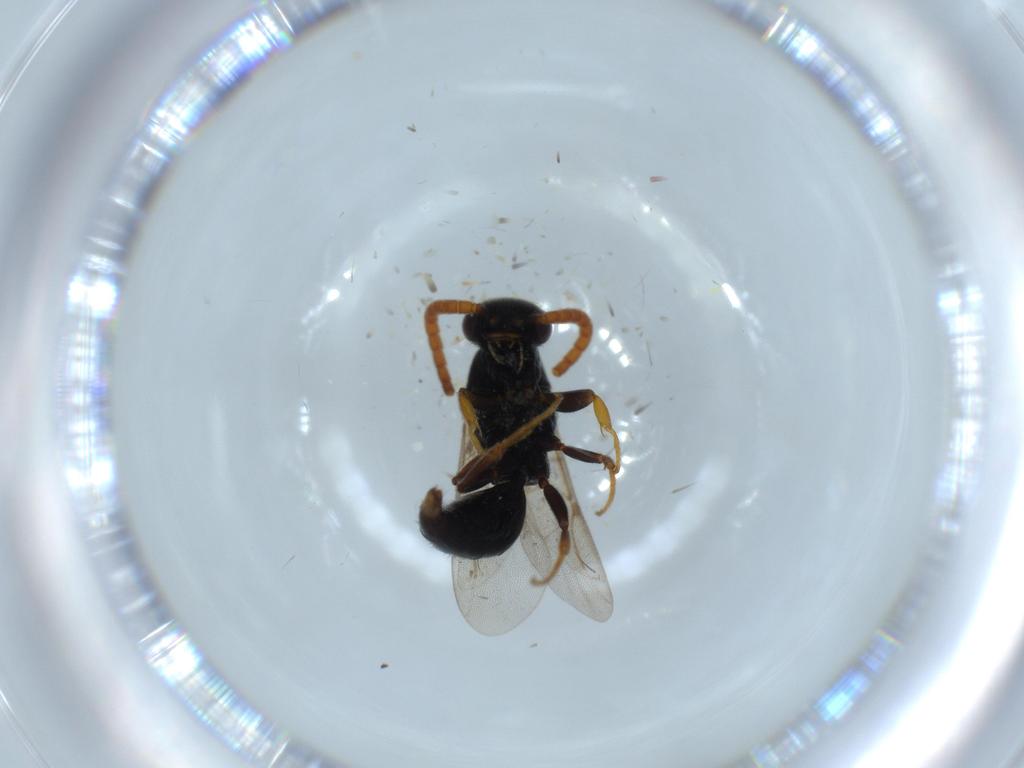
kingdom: Animalia
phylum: Arthropoda
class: Insecta
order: Hymenoptera
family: Bethylidae
